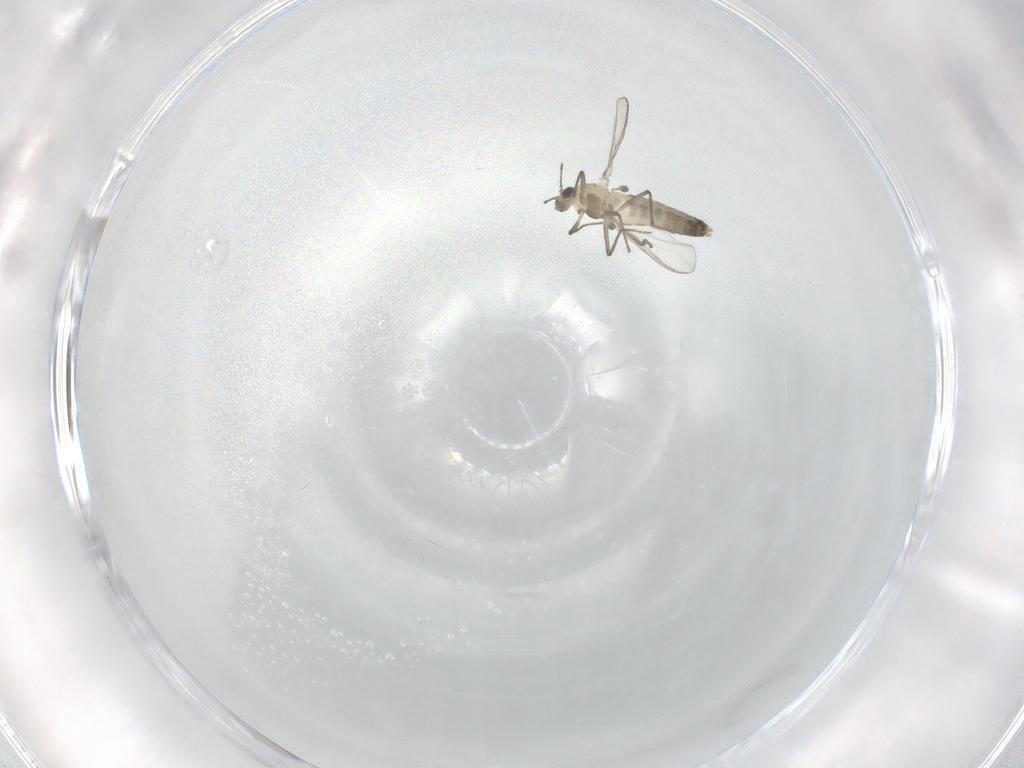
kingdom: Animalia
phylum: Arthropoda
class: Insecta
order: Diptera
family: Chironomidae
